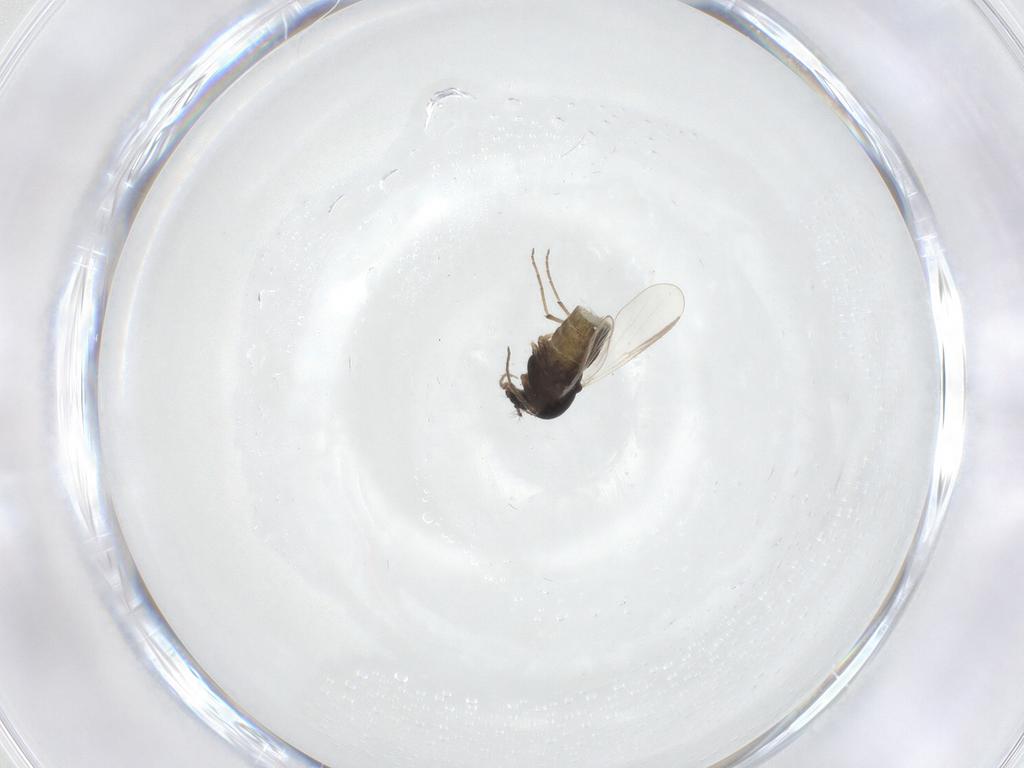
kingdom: Animalia
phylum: Arthropoda
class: Insecta
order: Diptera
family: Chironomidae
